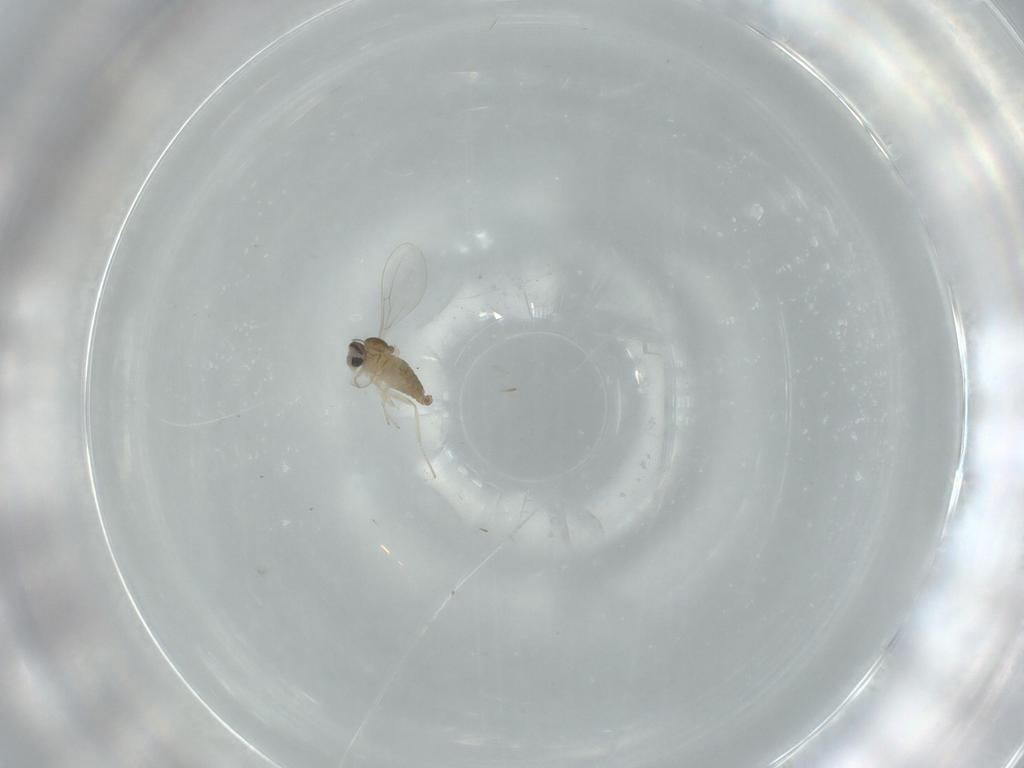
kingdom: Animalia
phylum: Arthropoda
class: Insecta
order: Diptera
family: Cecidomyiidae
